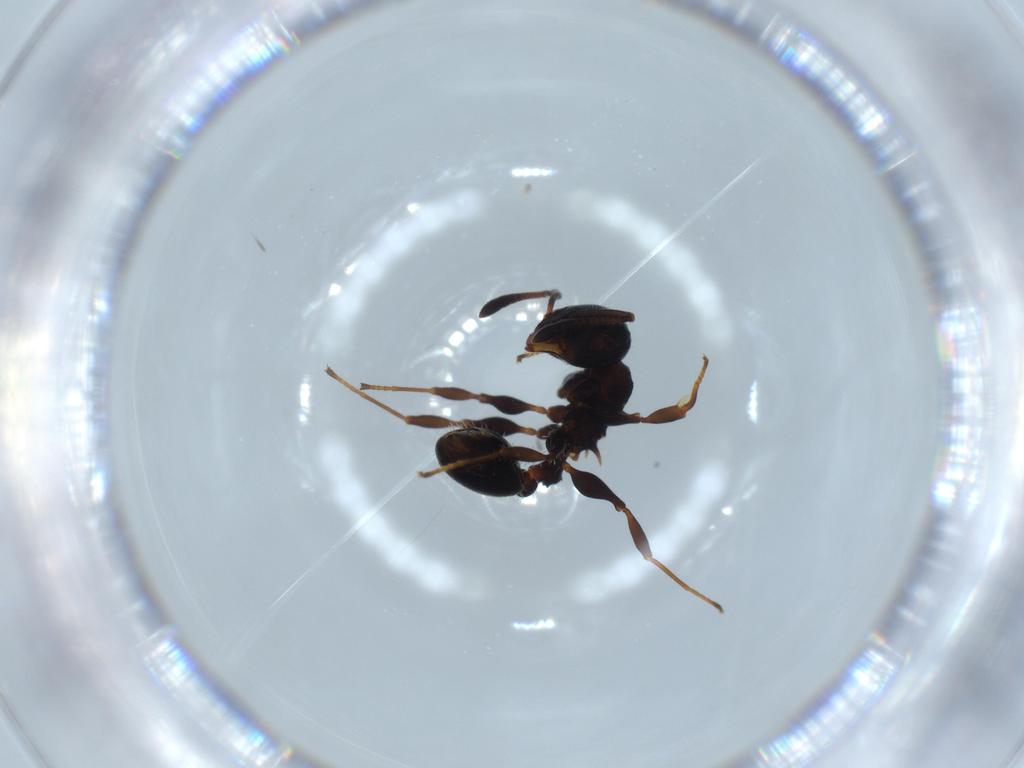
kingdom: Animalia
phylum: Arthropoda
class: Insecta
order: Hymenoptera
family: Formicidae
